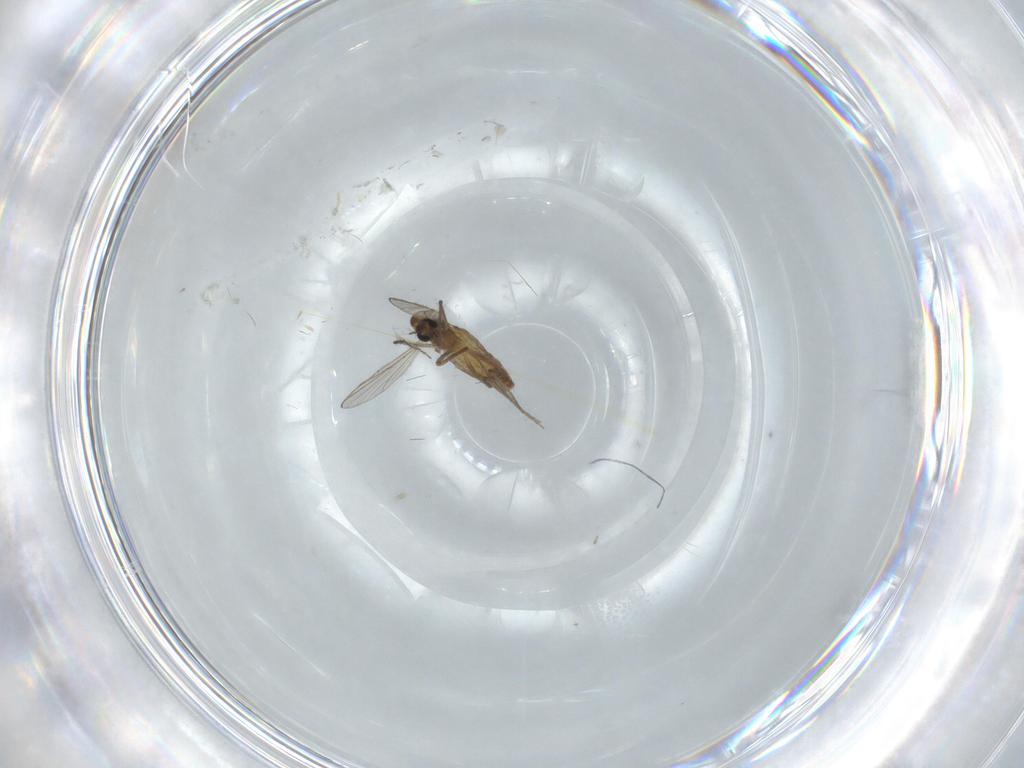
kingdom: Animalia
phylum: Arthropoda
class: Insecta
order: Diptera
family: Chironomidae
